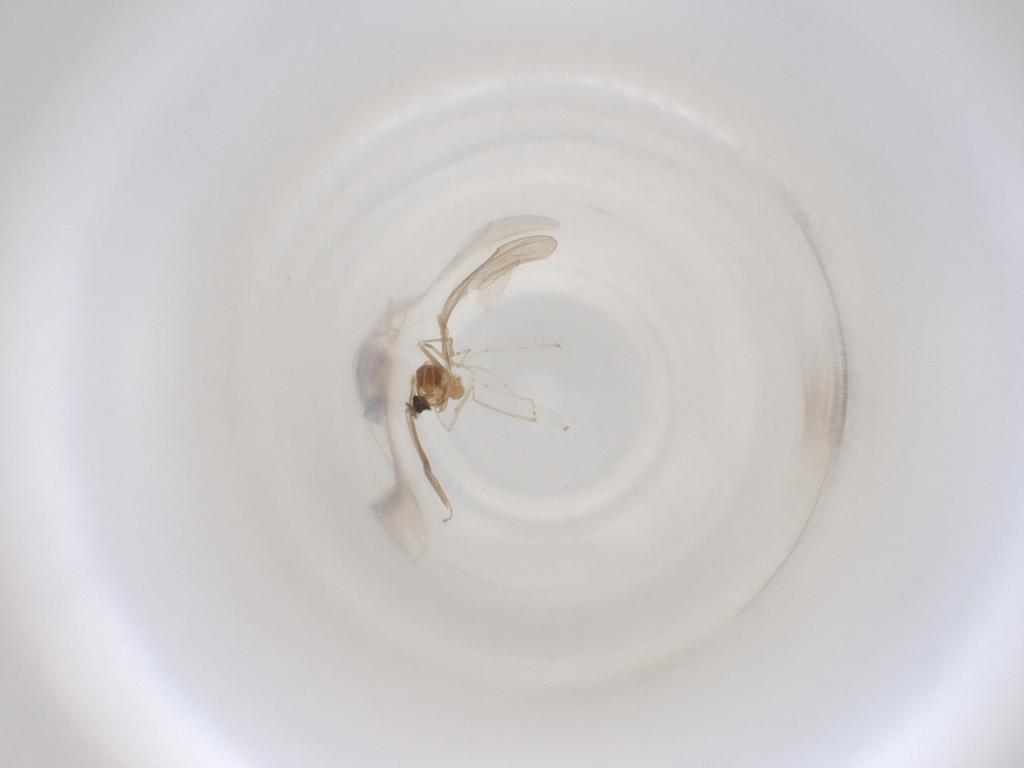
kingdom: Animalia
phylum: Arthropoda
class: Insecta
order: Diptera
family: Cecidomyiidae
